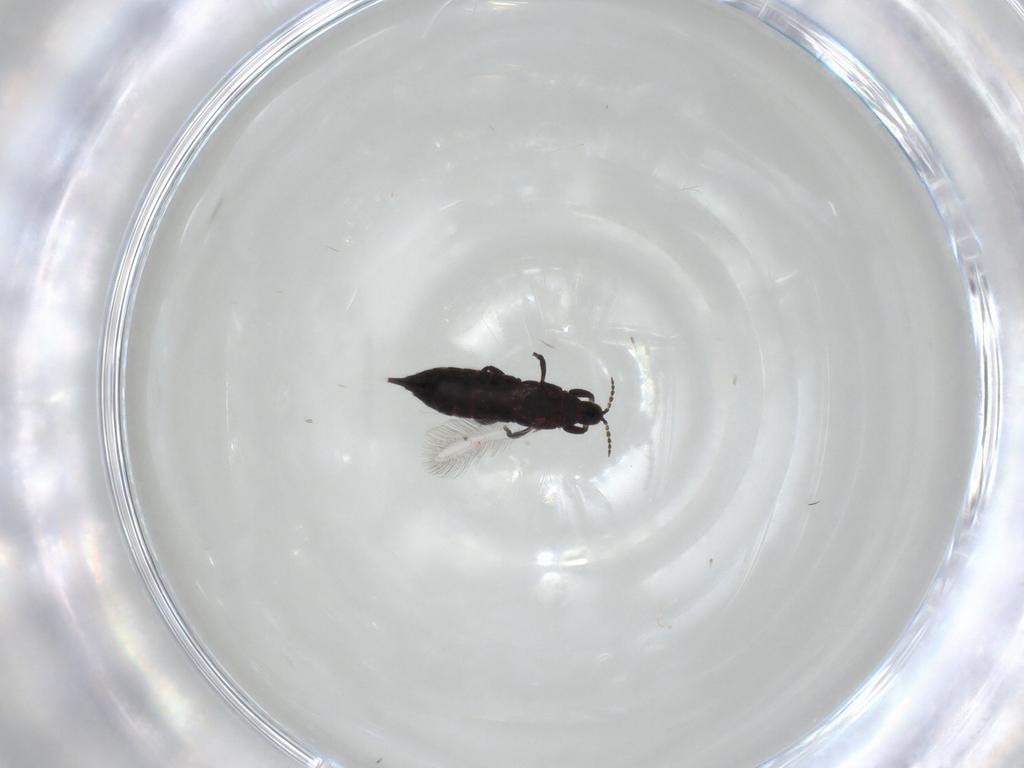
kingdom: Animalia
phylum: Arthropoda
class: Insecta
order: Thysanoptera
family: Phlaeothripidae
